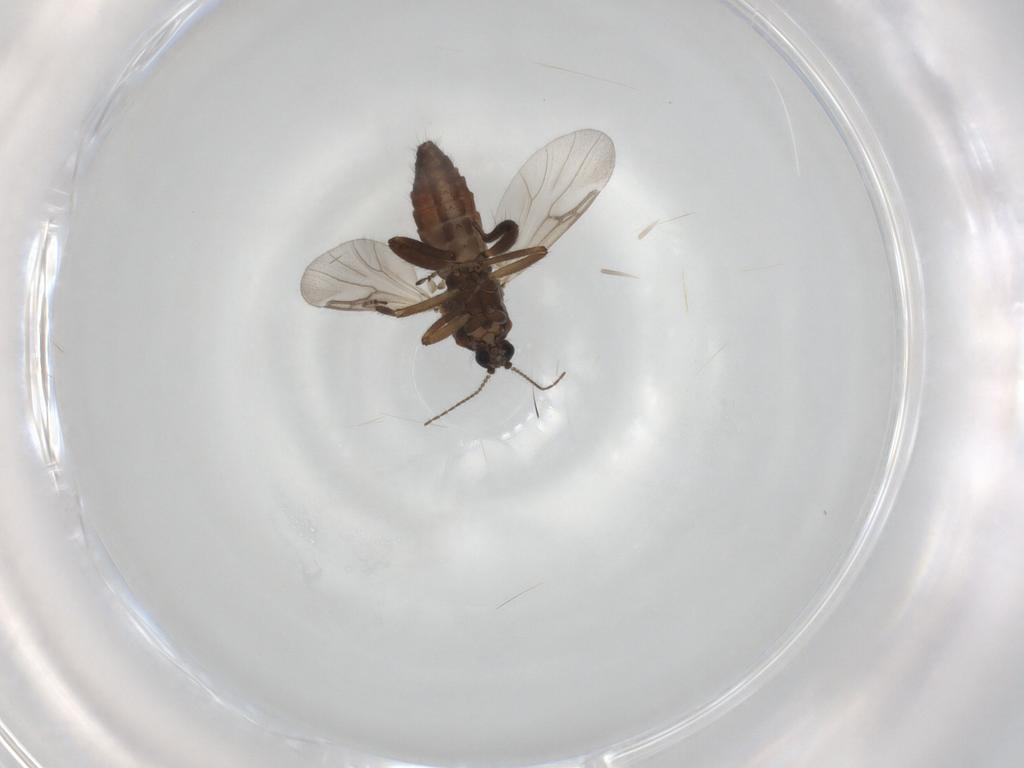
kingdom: Animalia
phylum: Arthropoda
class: Insecta
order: Diptera
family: Ceratopogonidae
